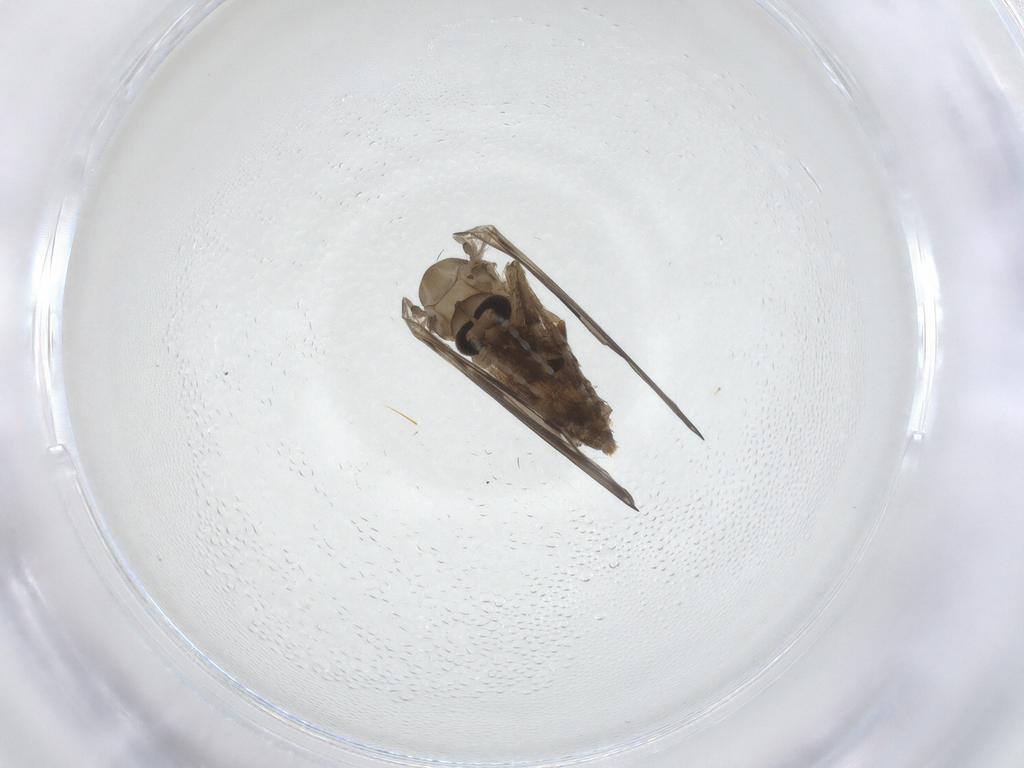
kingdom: Animalia
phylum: Arthropoda
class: Insecta
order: Diptera
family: Psychodidae
